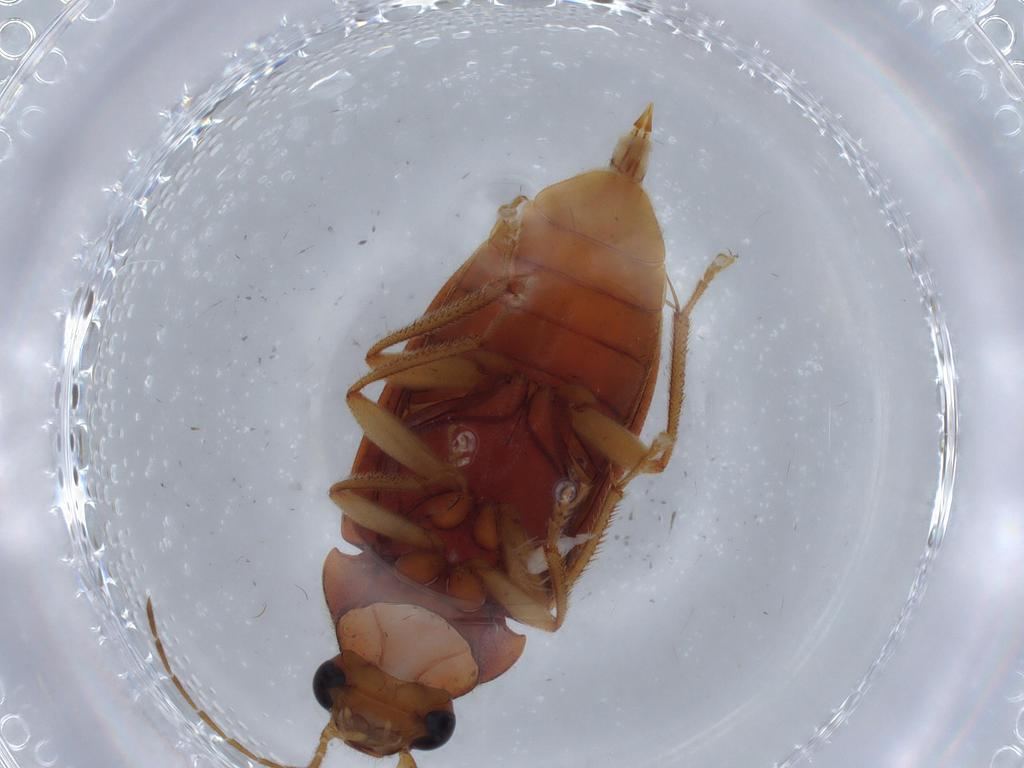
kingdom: Animalia
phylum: Arthropoda
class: Insecta
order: Coleoptera
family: Ptilodactylidae
